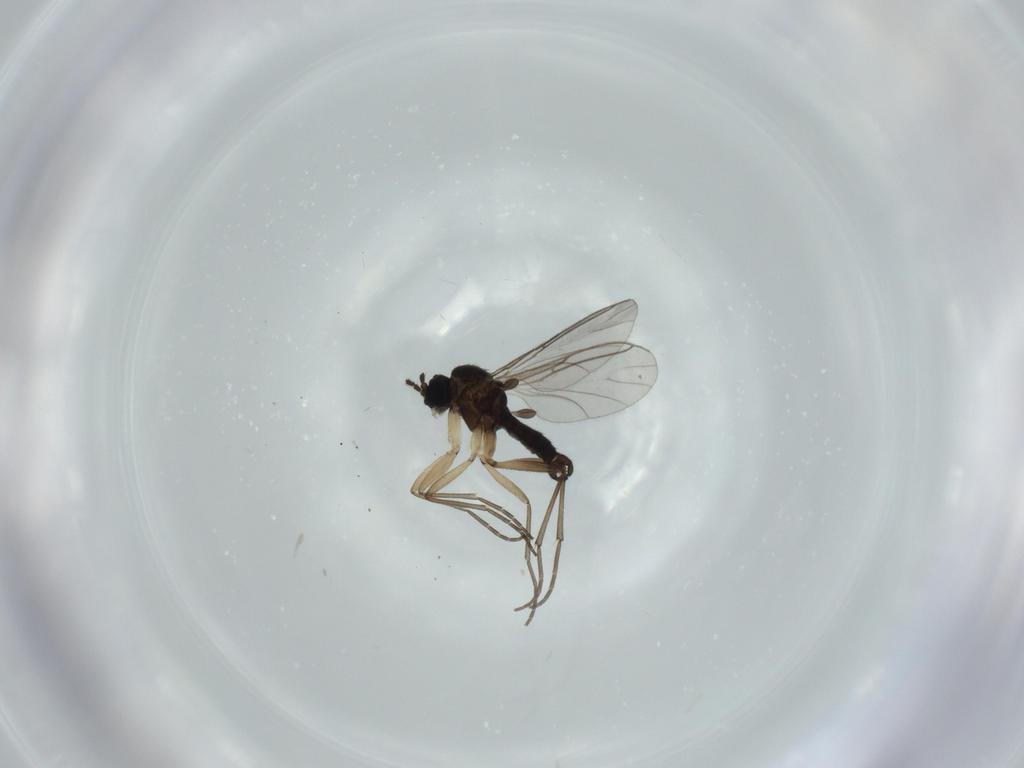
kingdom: Animalia
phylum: Arthropoda
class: Insecta
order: Diptera
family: Sciaridae
